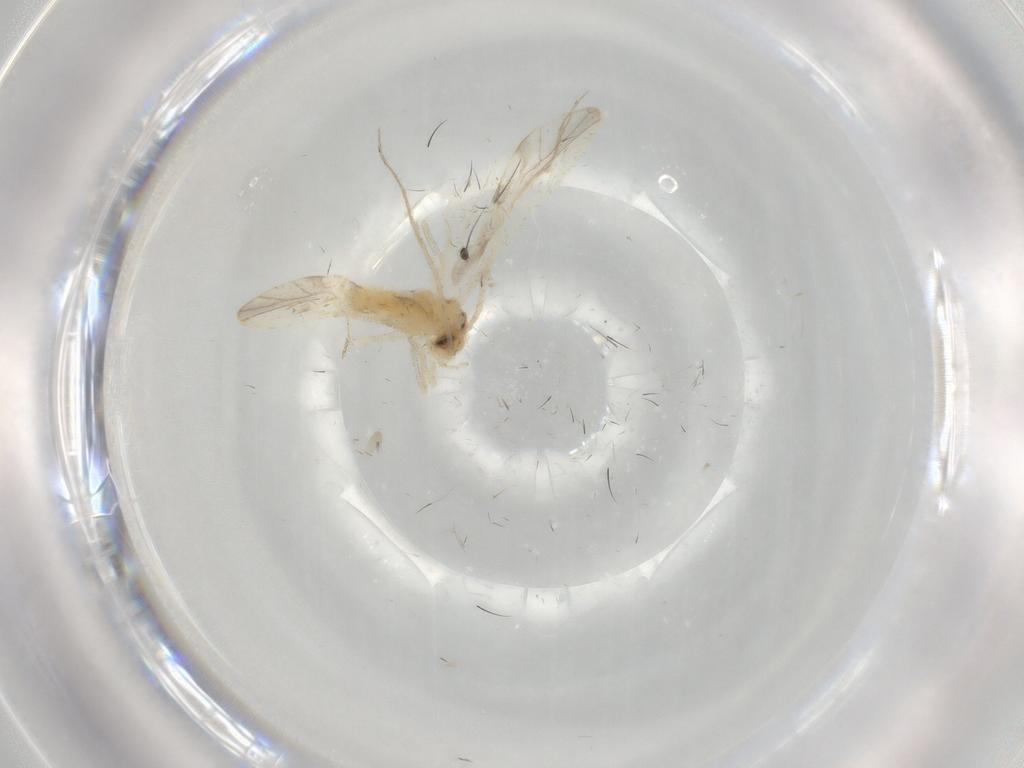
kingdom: Animalia
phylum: Arthropoda
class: Insecta
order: Psocodea
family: Caeciliusidae
